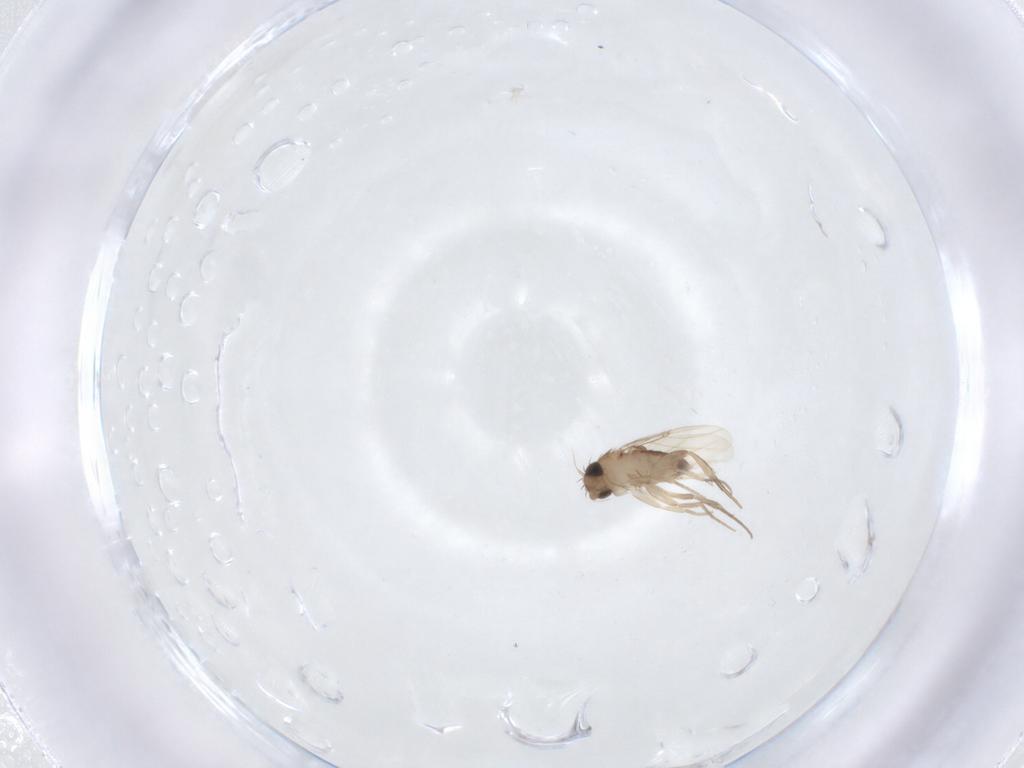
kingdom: Animalia
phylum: Arthropoda
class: Insecta
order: Diptera
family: Phoridae
